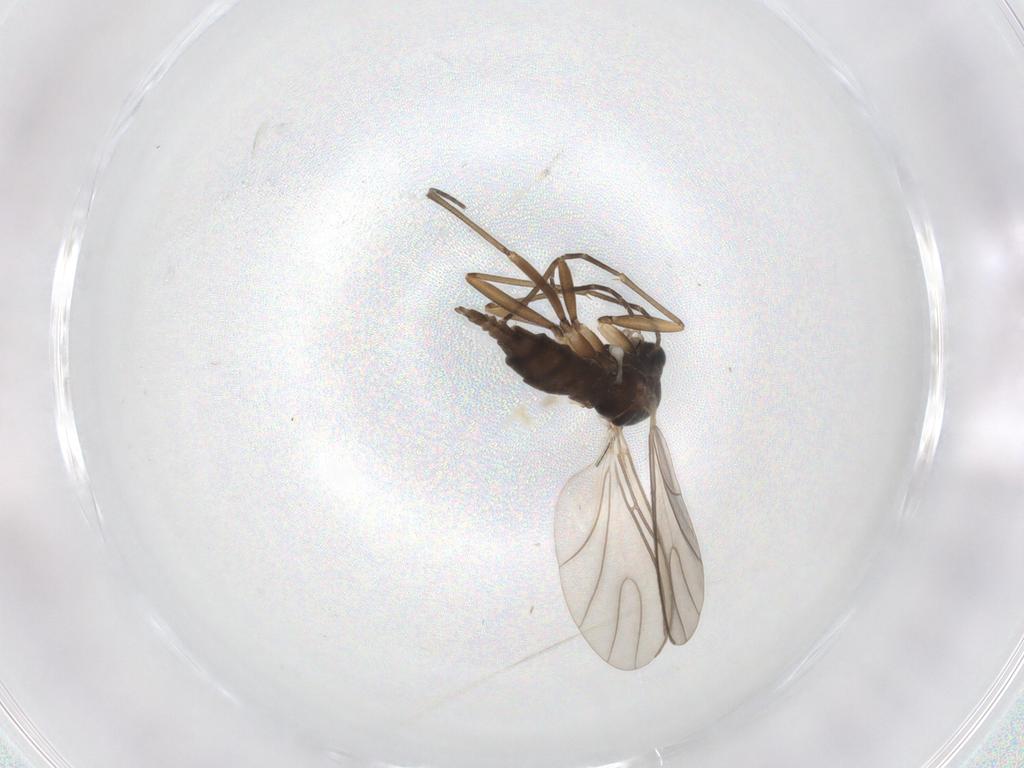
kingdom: Animalia
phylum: Arthropoda
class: Insecta
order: Diptera
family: Sciaridae
